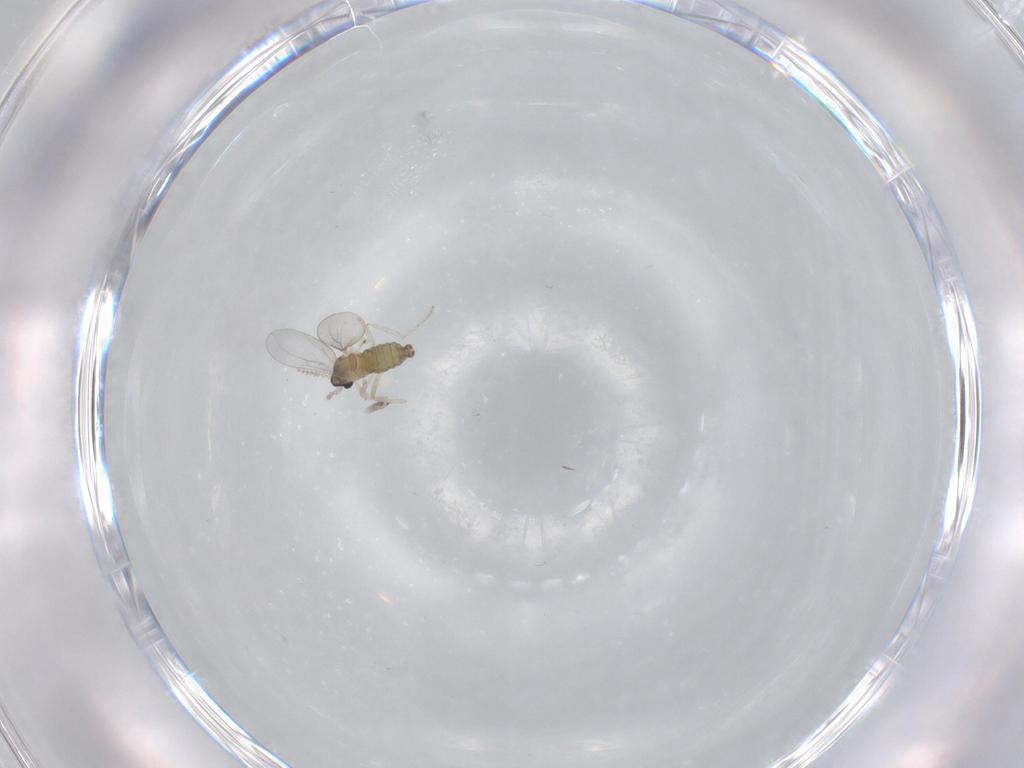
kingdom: Animalia
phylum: Arthropoda
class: Insecta
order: Diptera
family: Cecidomyiidae
